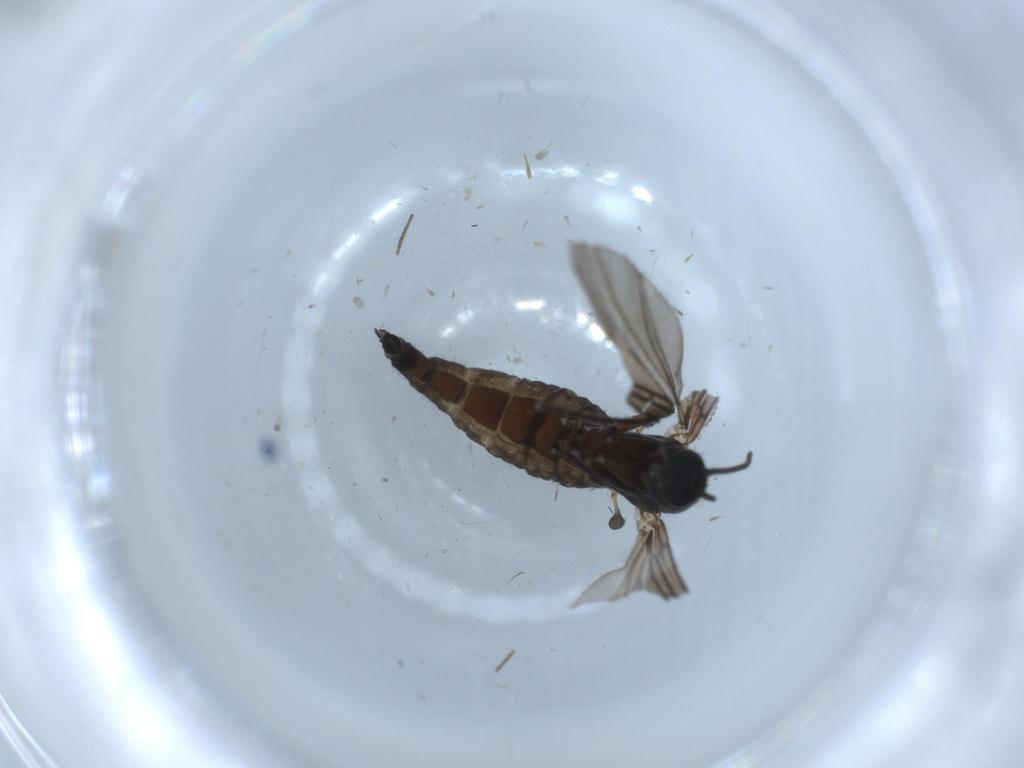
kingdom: Animalia
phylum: Arthropoda
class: Insecta
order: Diptera
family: Sciaridae
